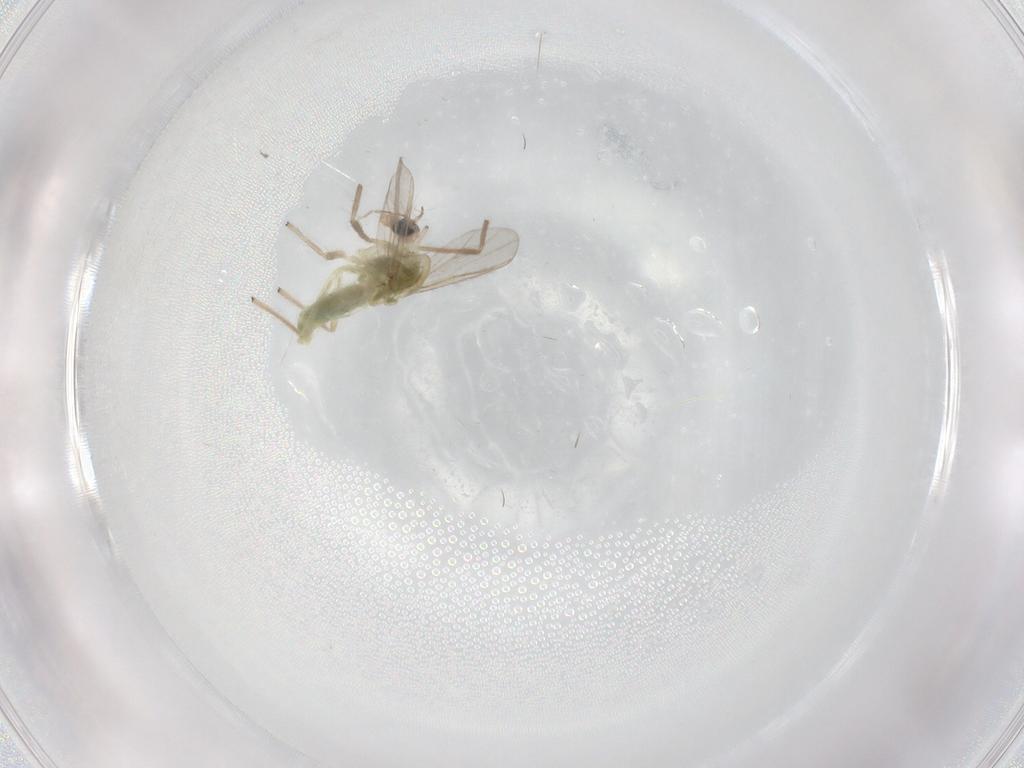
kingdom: Animalia
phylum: Arthropoda
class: Insecta
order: Diptera
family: Chironomidae
